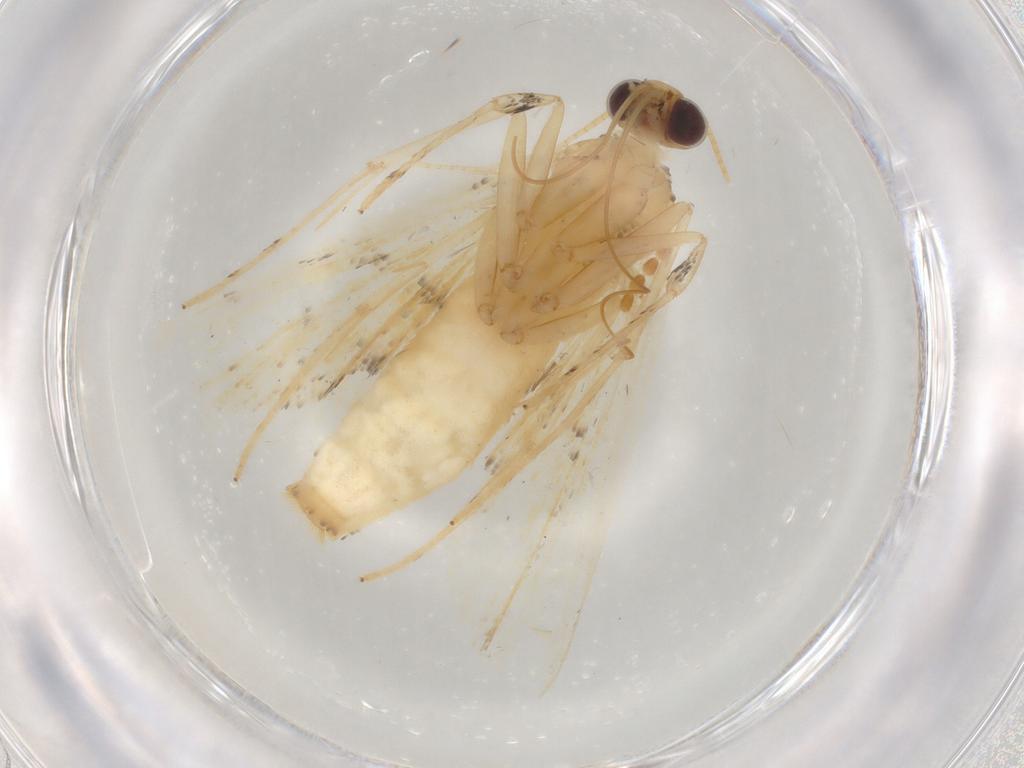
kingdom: Animalia
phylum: Arthropoda
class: Insecta
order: Lepidoptera
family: Crambidae
